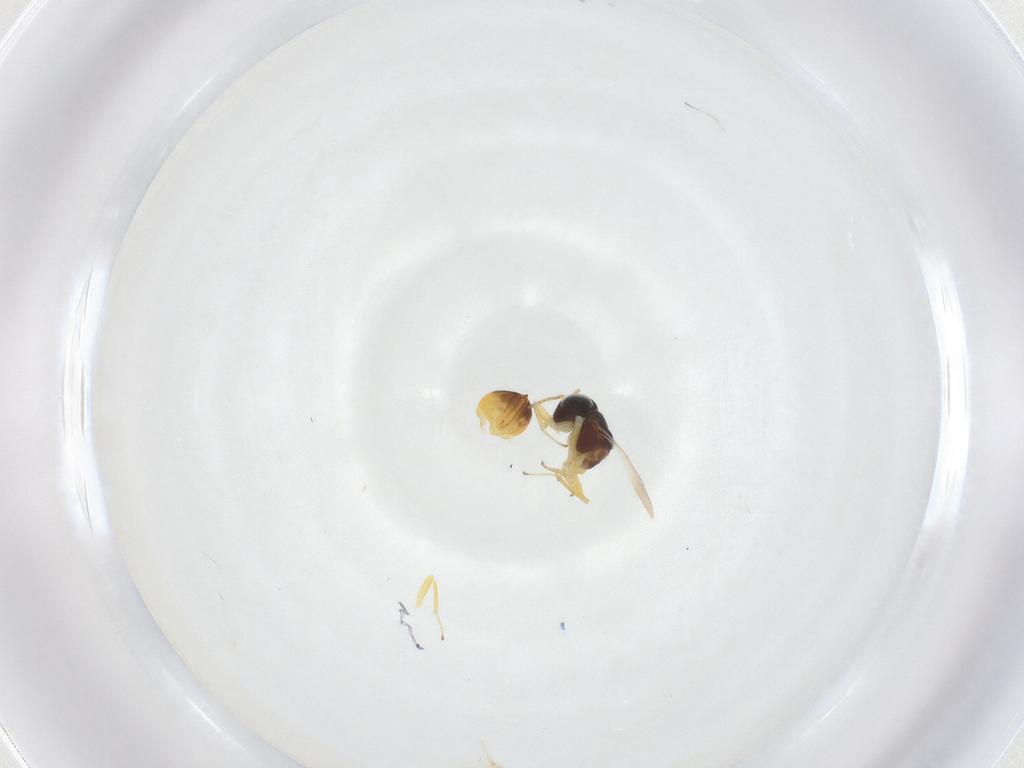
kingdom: Animalia
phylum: Arthropoda
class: Insecta
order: Hymenoptera
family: Encyrtidae
